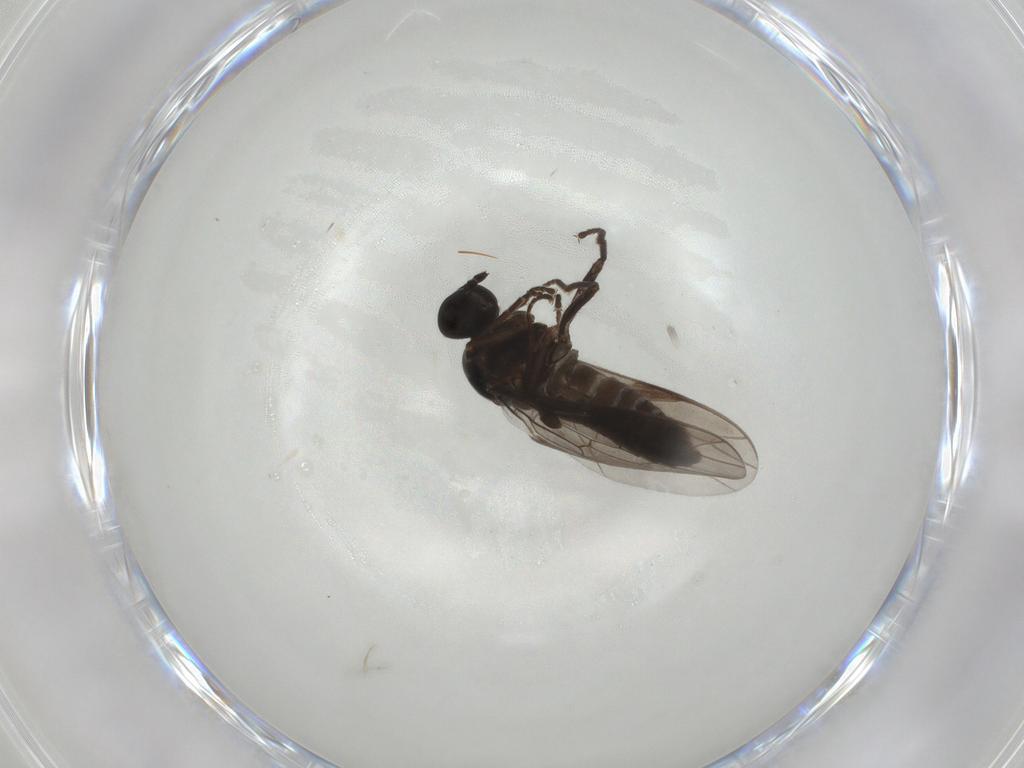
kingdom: Animalia
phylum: Arthropoda
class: Insecta
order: Diptera
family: Scenopinidae
